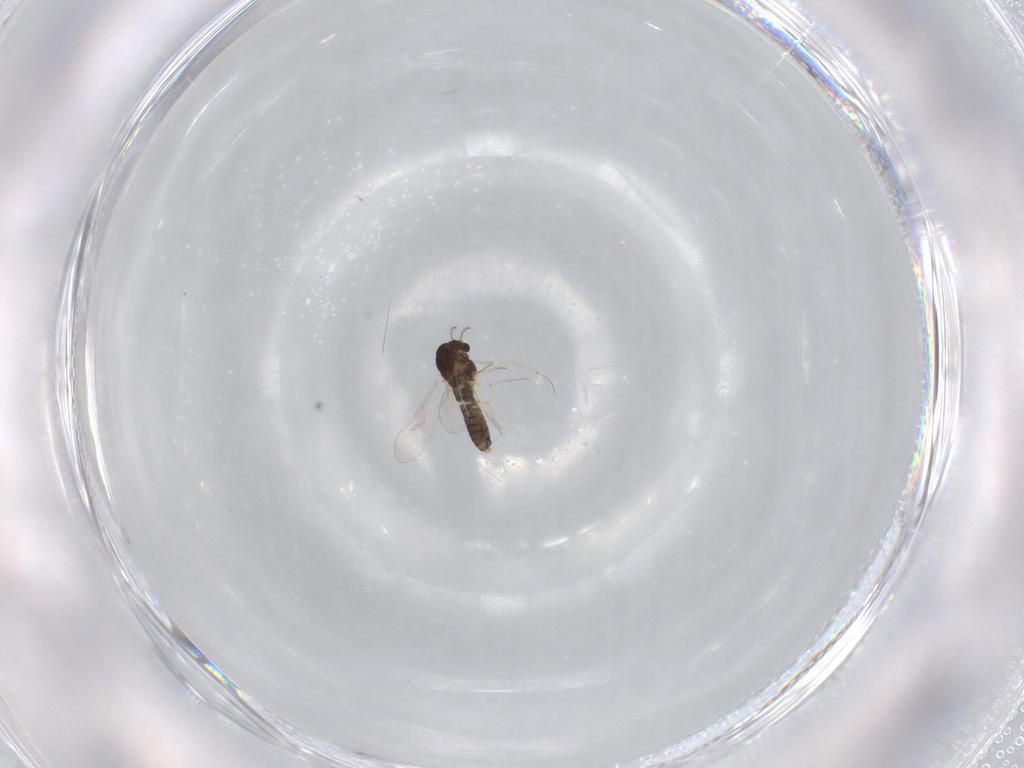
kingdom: Animalia
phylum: Arthropoda
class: Insecta
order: Diptera
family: Chironomidae
